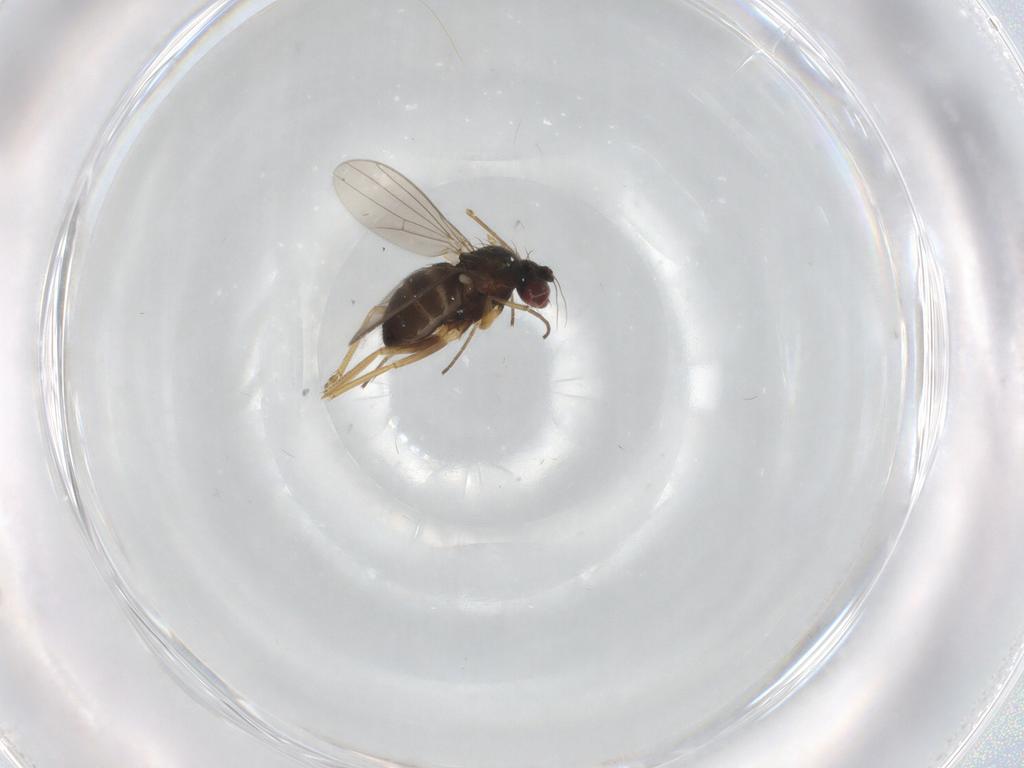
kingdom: Animalia
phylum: Arthropoda
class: Insecta
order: Diptera
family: Dolichopodidae
